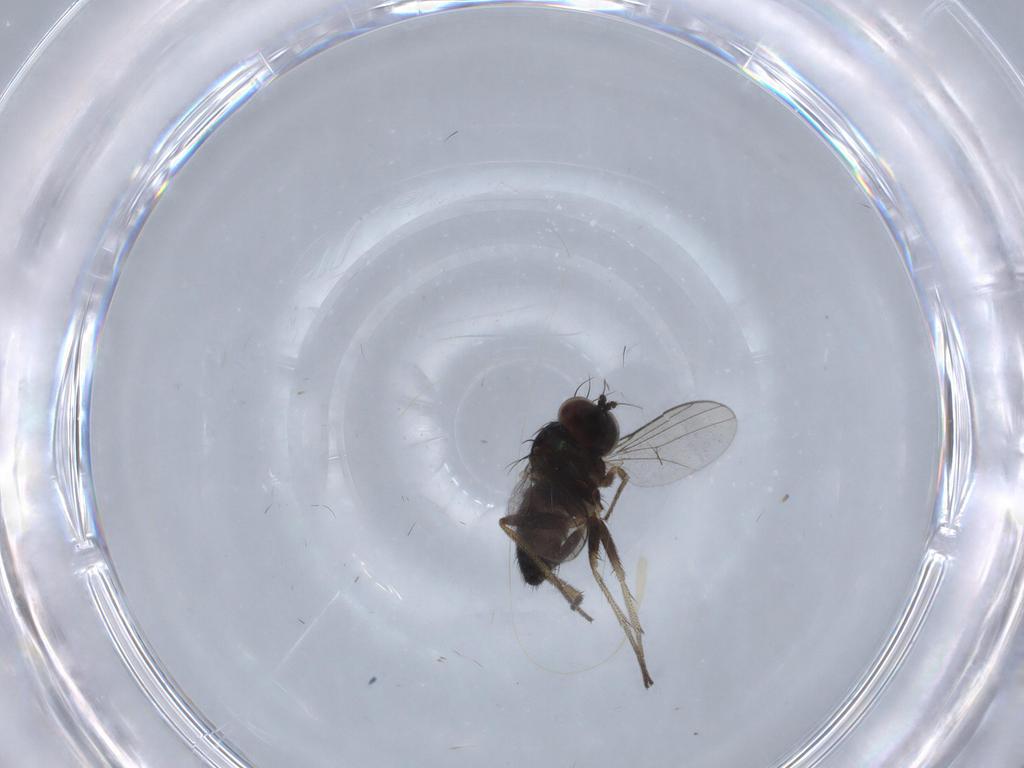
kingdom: Animalia
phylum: Arthropoda
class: Insecta
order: Diptera
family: Dolichopodidae
